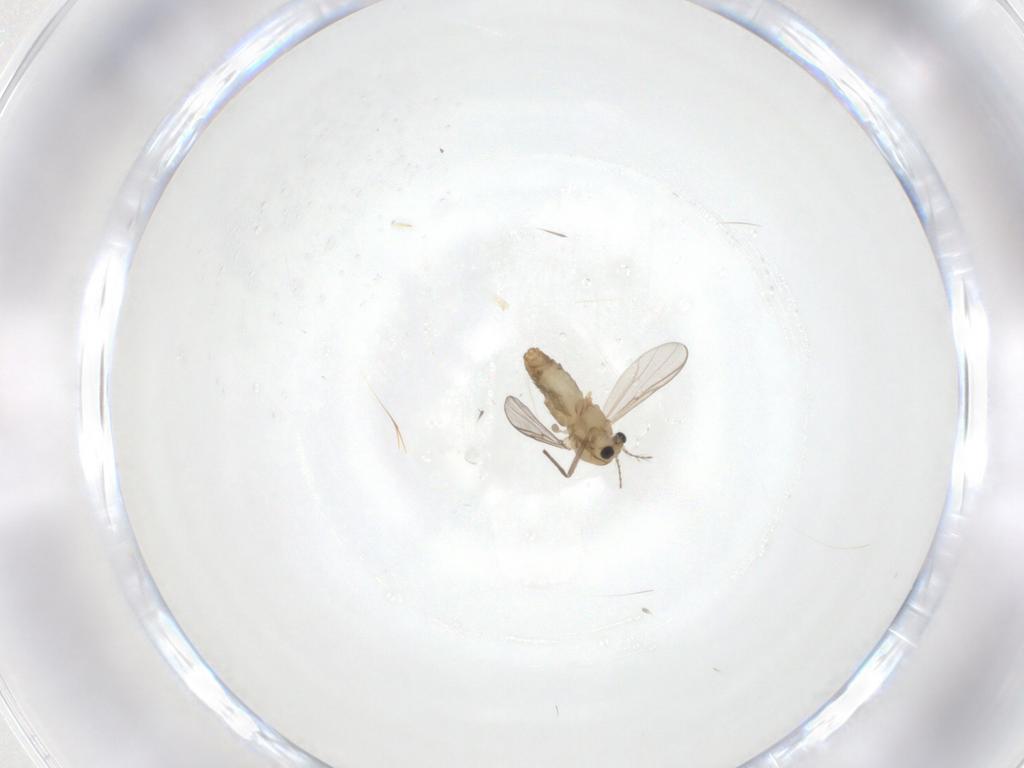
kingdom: Animalia
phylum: Arthropoda
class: Insecta
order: Diptera
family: Chironomidae
